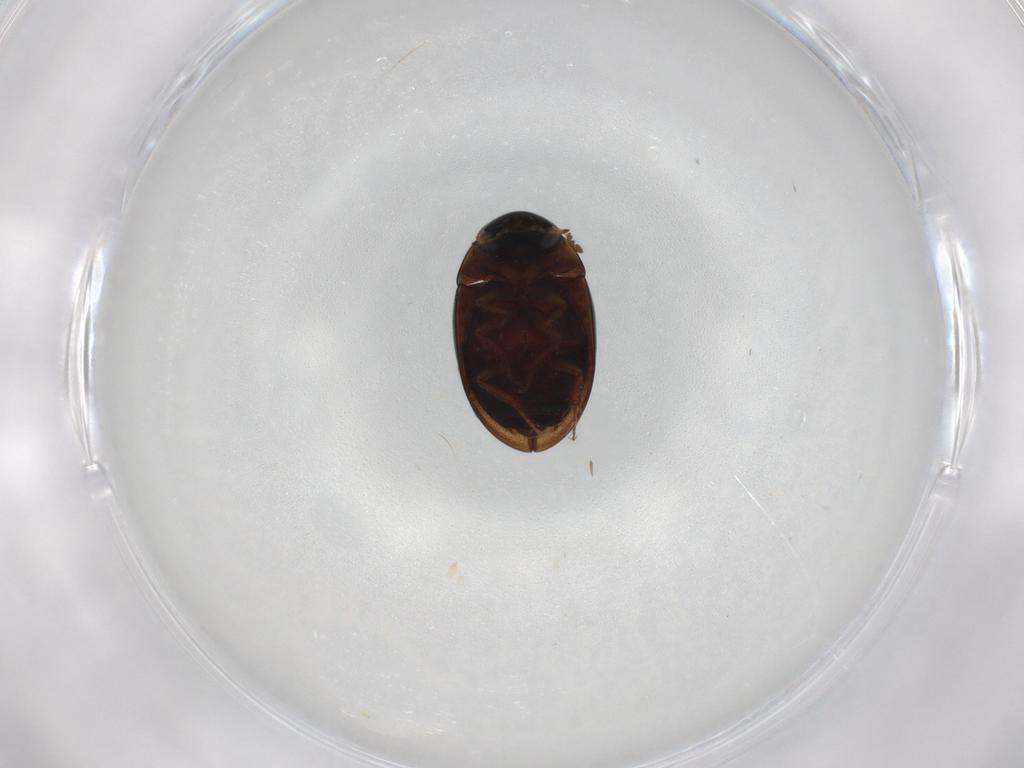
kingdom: Animalia
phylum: Arthropoda
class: Insecta
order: Coleoptera
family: Hydrophilidae
